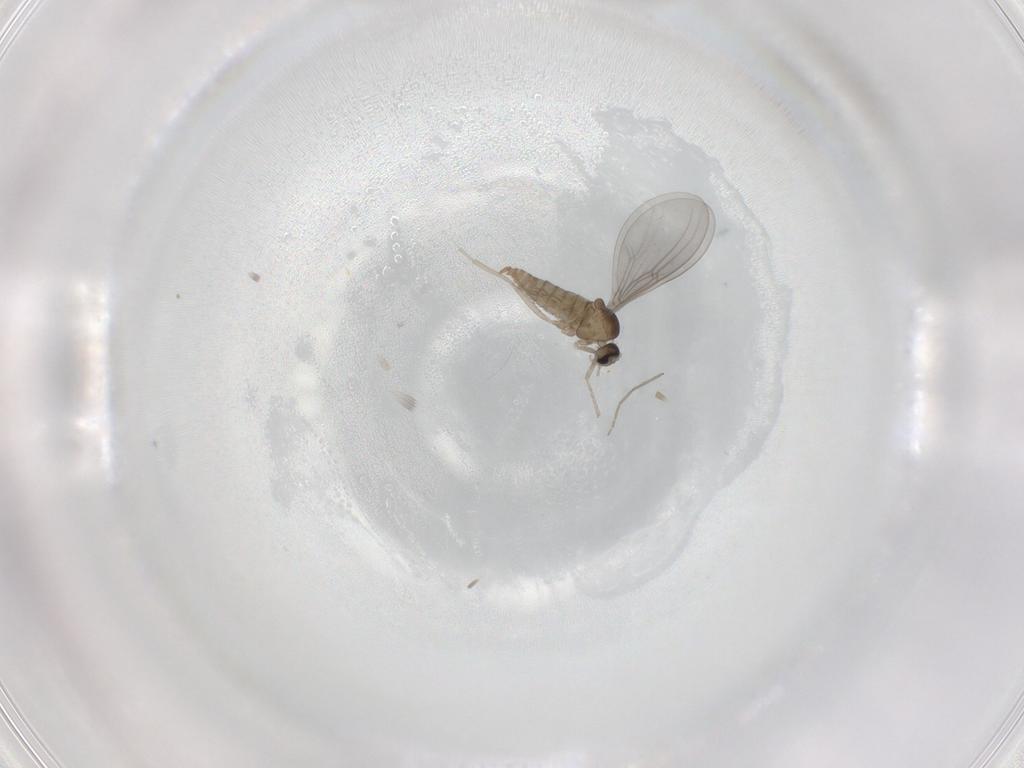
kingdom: Animalia
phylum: Arthropoda
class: Insecta
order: Diptera
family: Cecidomyiidae
